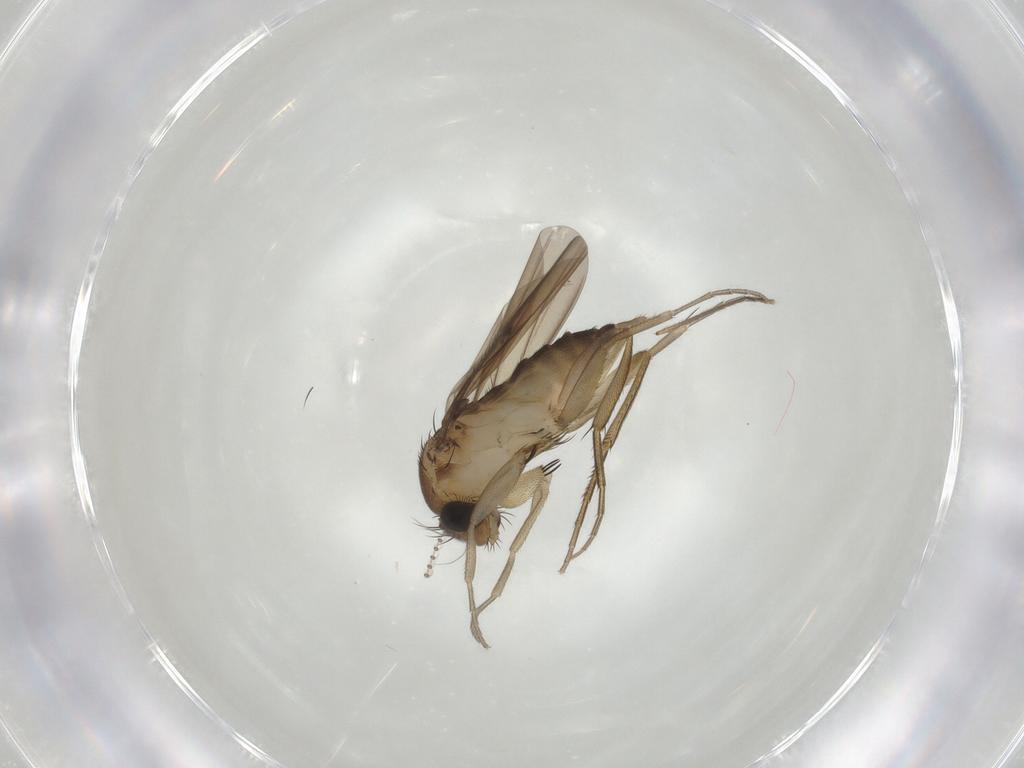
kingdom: Animalia
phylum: Arthropoda
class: Insecta
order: Diptera
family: Phoridae
